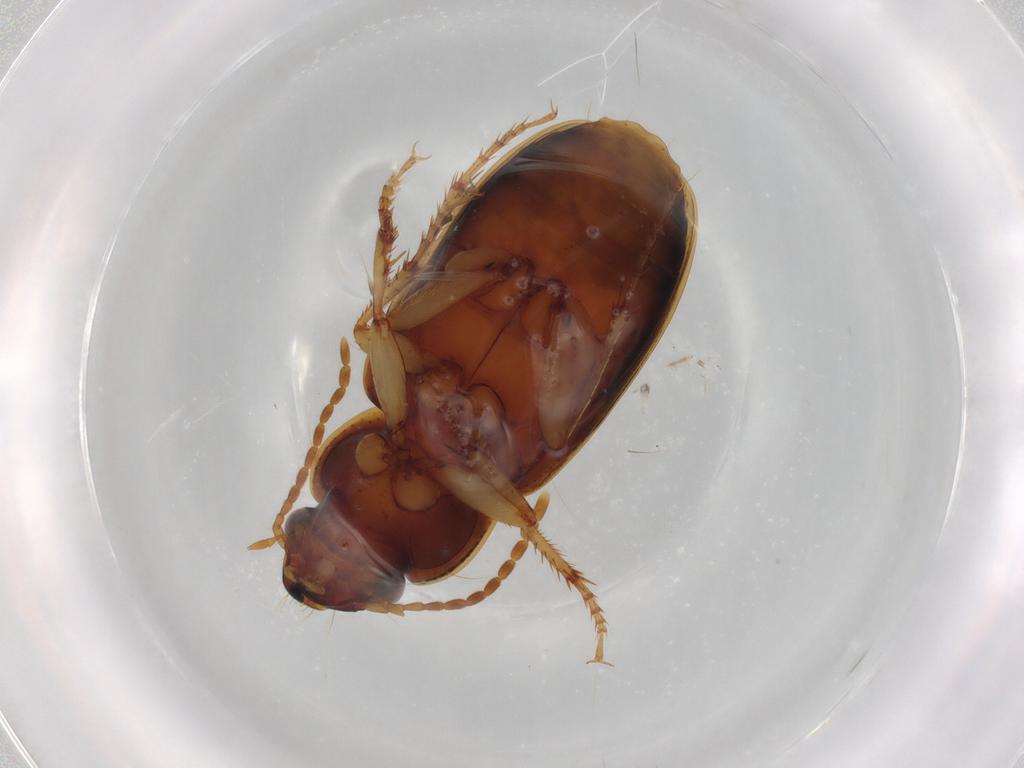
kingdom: Animalia
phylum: Arthropoda
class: Insecta
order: Coleoptera
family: Carabidae
